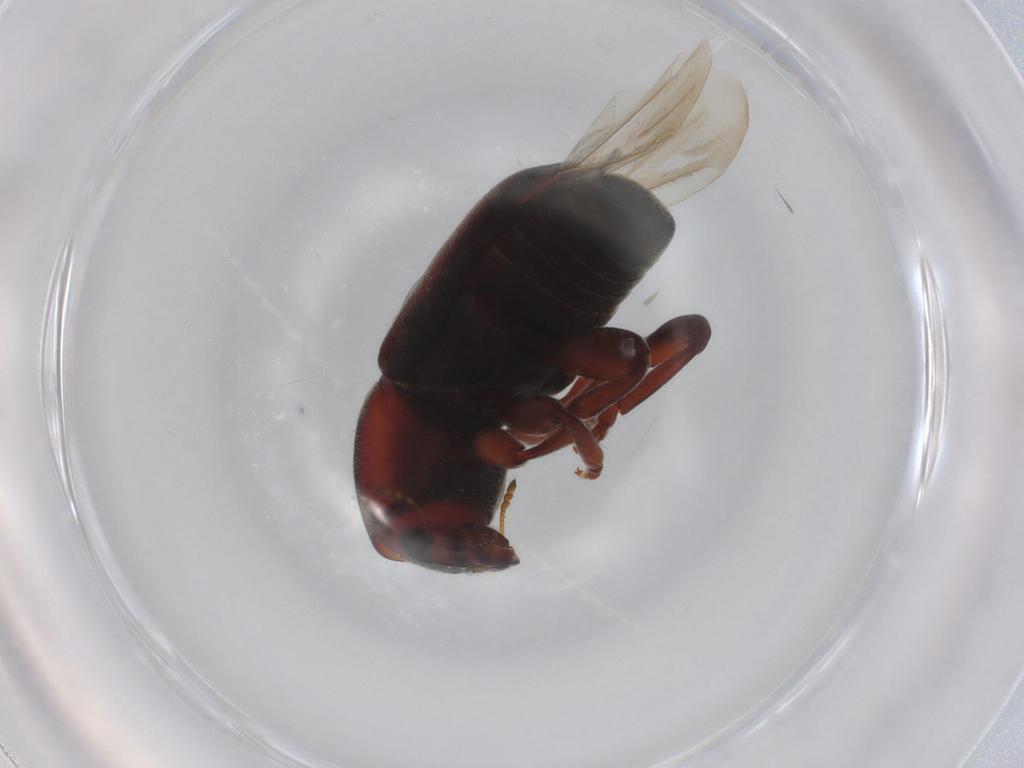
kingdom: Animalia
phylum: Arthropoda
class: Insecta
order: Coleoptera
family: Anthribidae
